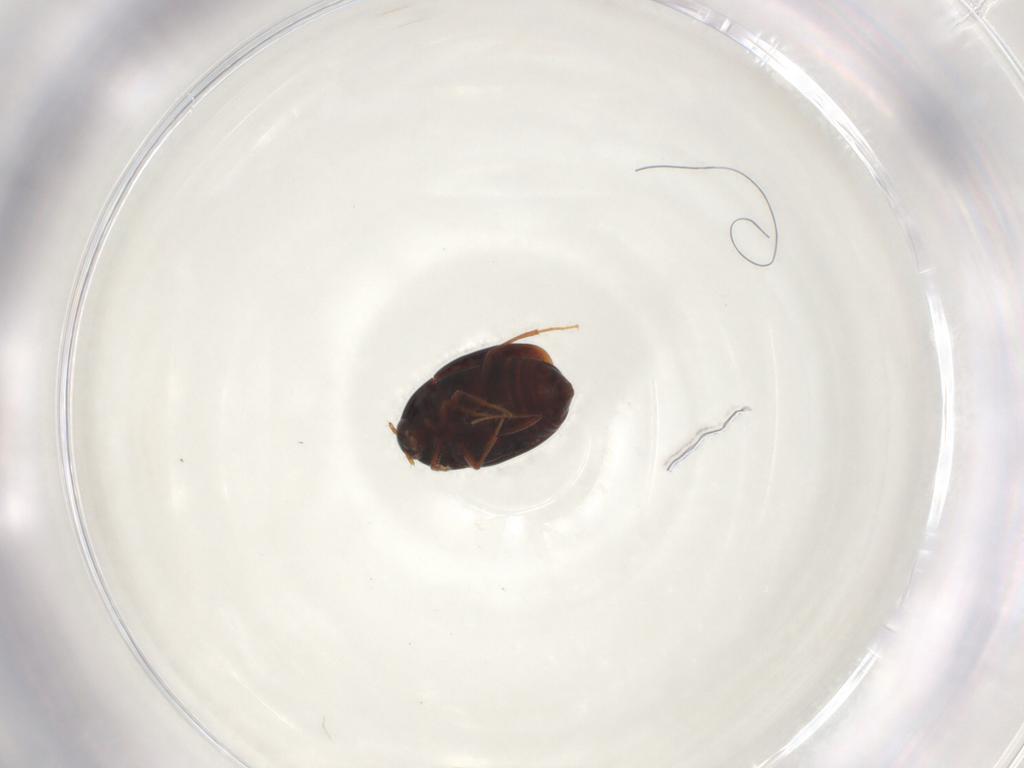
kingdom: Animalia
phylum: Arthropoda
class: Insecta
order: Coleoptera
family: Staphylinidae
